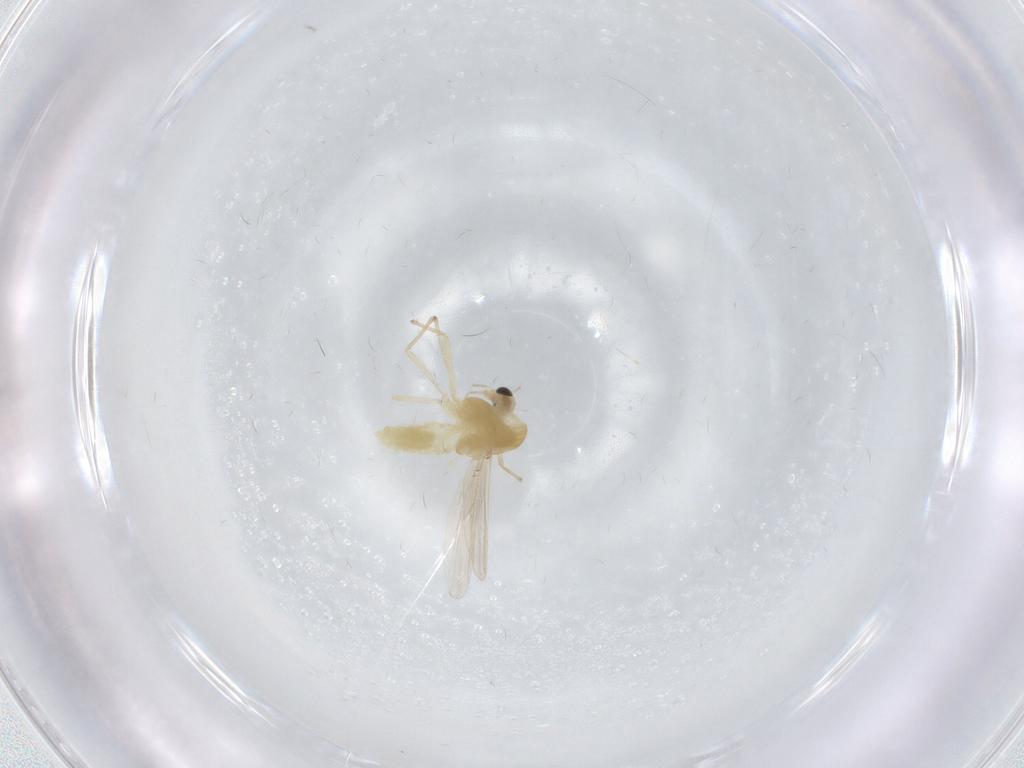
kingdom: Animalia
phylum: Arthropoda
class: Insecta
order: Diptera
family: Chironomidae
